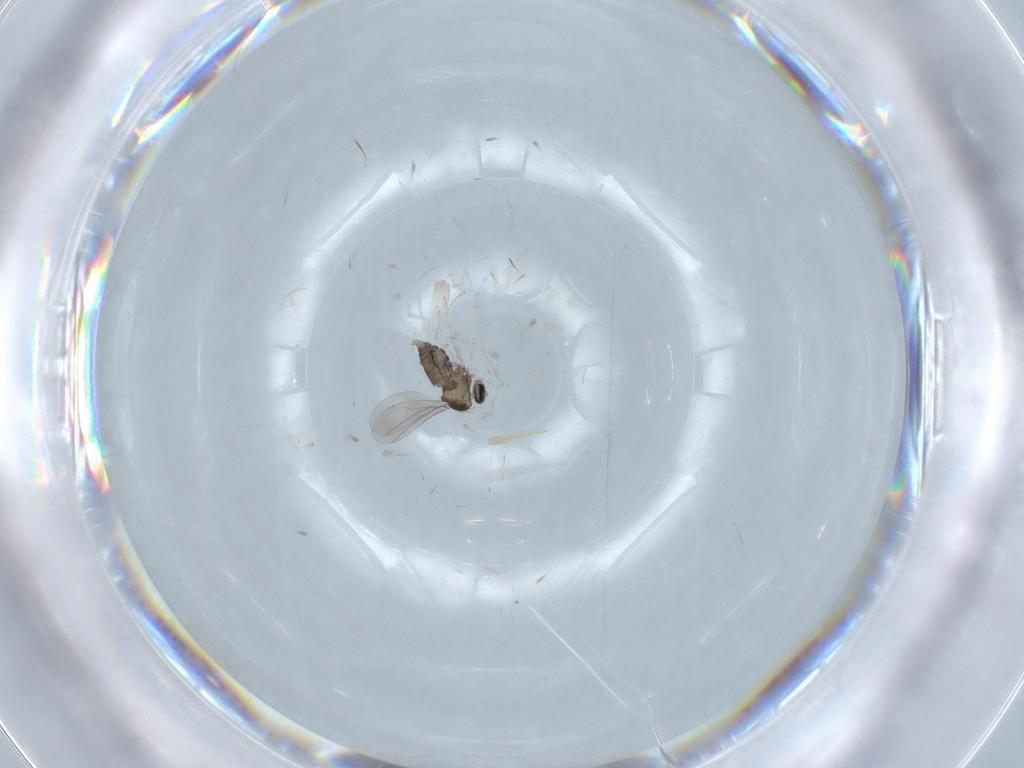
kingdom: Animalia
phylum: Arthropoda
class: Insecta
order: Diptera
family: Cecidomyiidae
